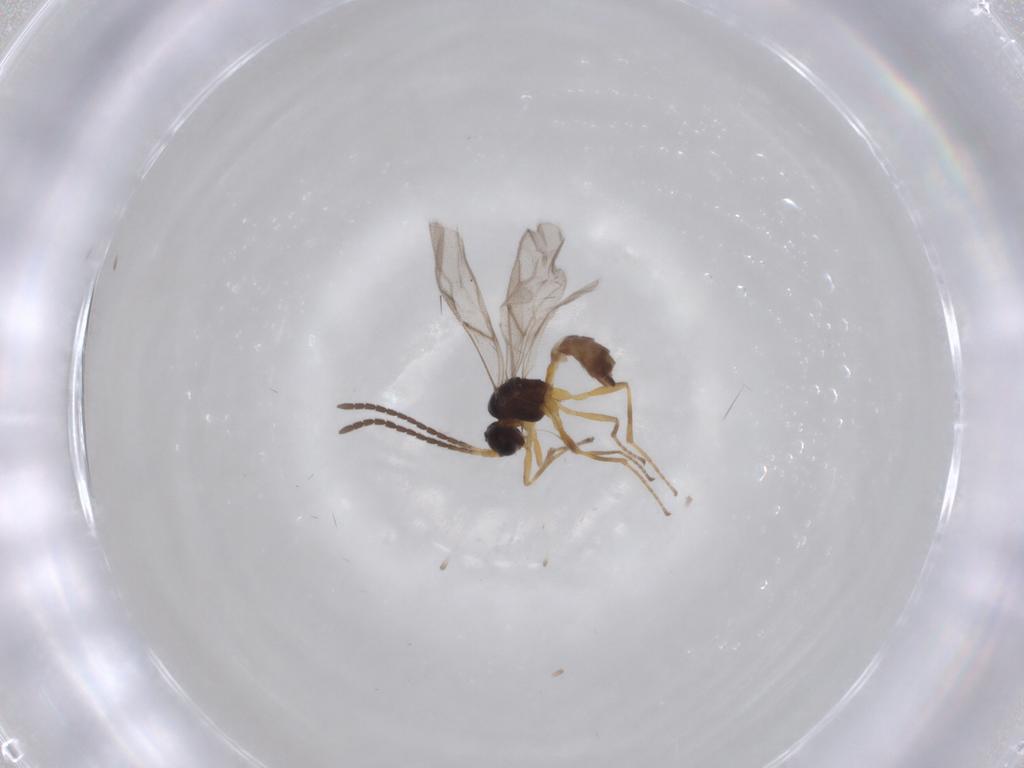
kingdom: Animalia
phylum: Arthropoda
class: Insecta
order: Hymenoptera
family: Braconidae
